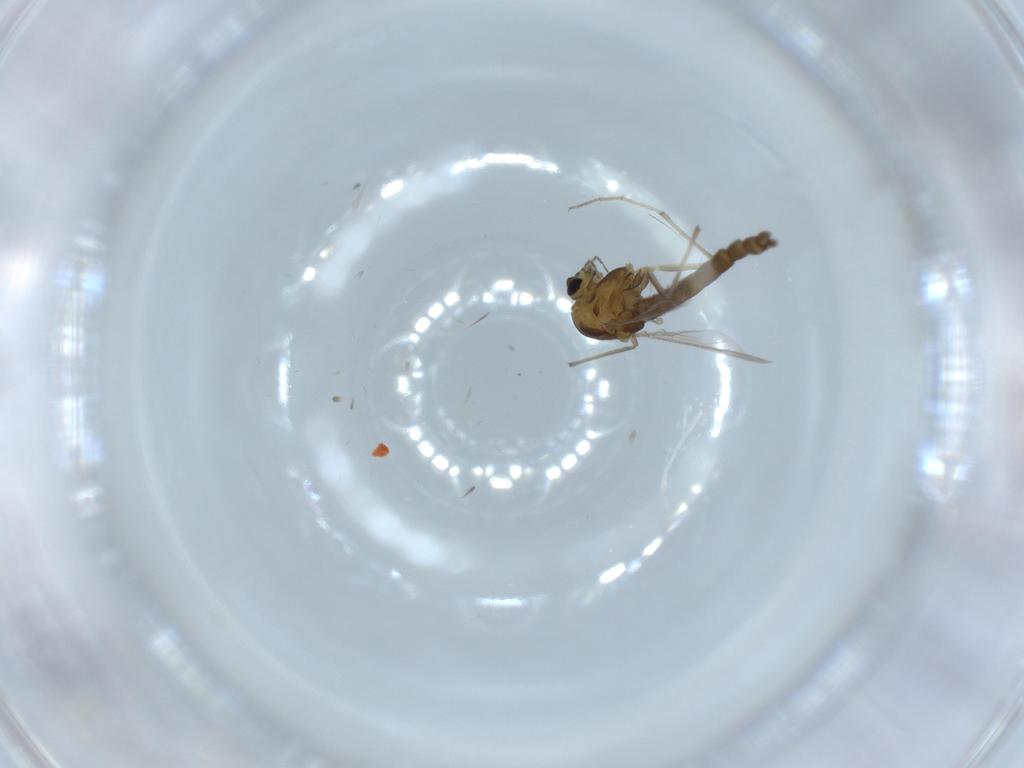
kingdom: Animalia
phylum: Arthropoda
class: Insecta
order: Diptera
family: Chironomidae
